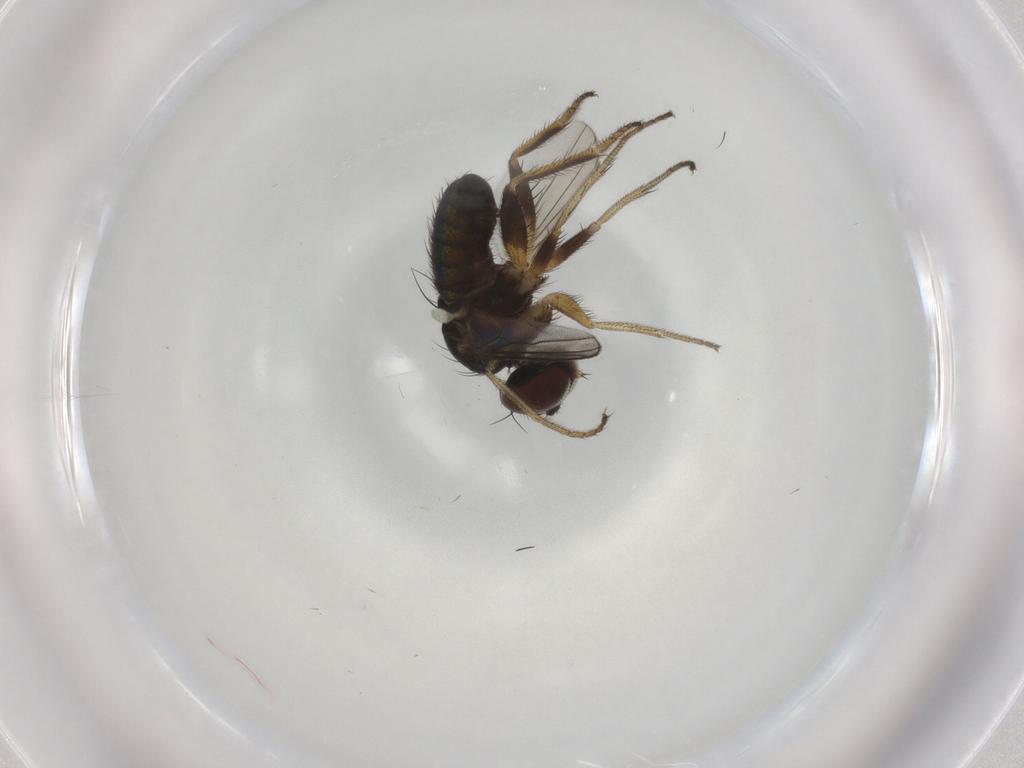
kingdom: Animalia
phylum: Arthropoda
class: Insecta
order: Diptera
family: Dolichopodidae
